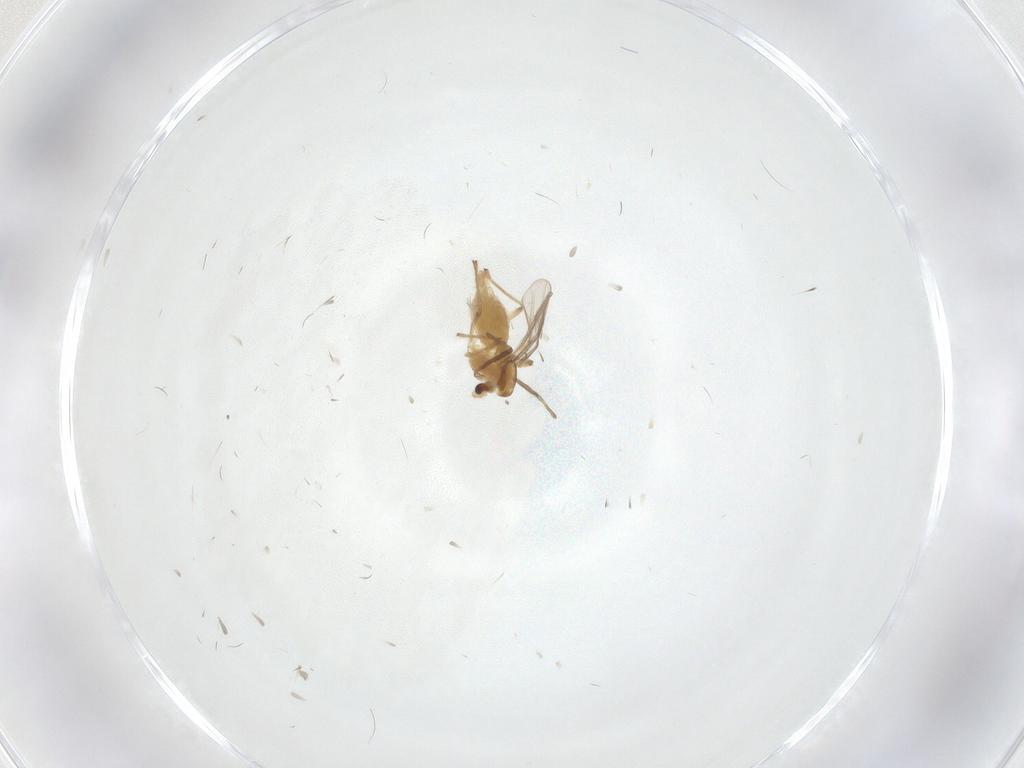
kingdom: Animalia
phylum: Arthropoda
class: Insecta
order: Diptera
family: Chironomidae
